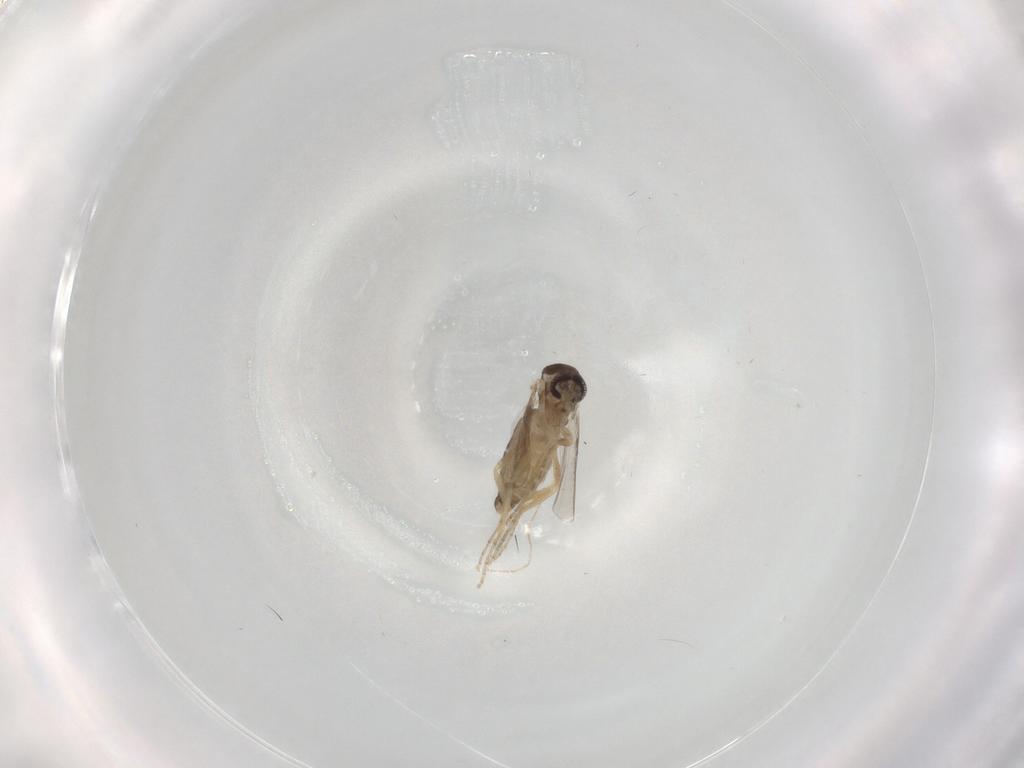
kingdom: Animalia
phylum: Arthropoda
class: Insecta
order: Diptera
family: Ceratopogonidae
